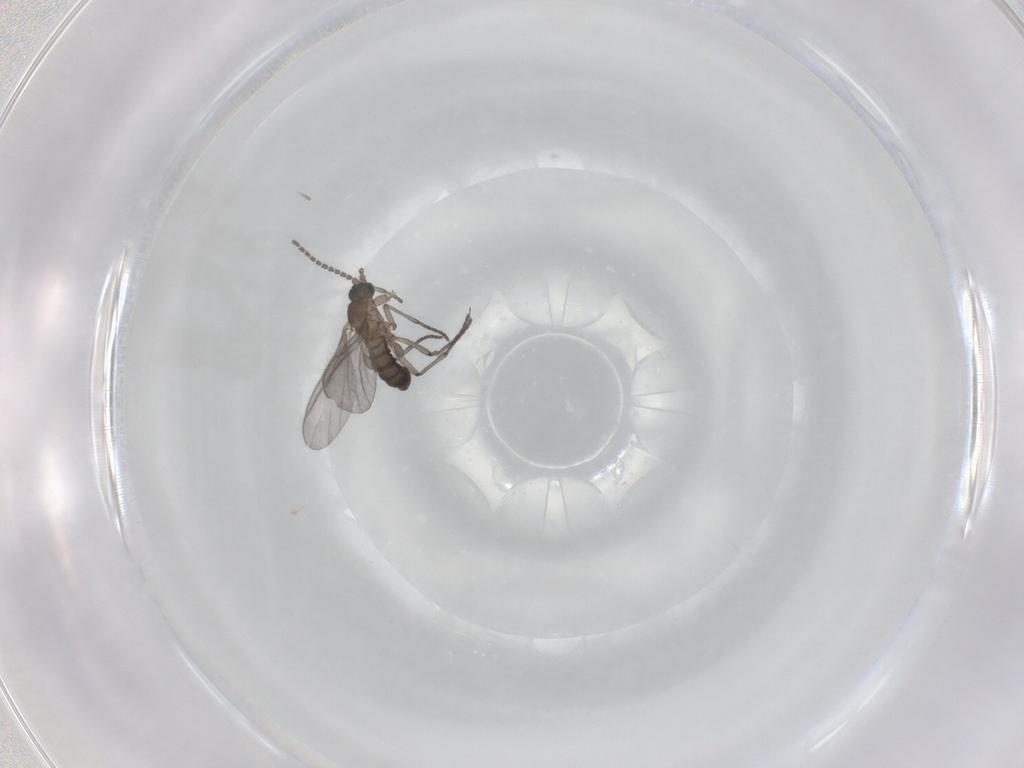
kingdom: Animalia
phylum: Arthropoda
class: Insecta
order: Diptera
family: Sciaridae
